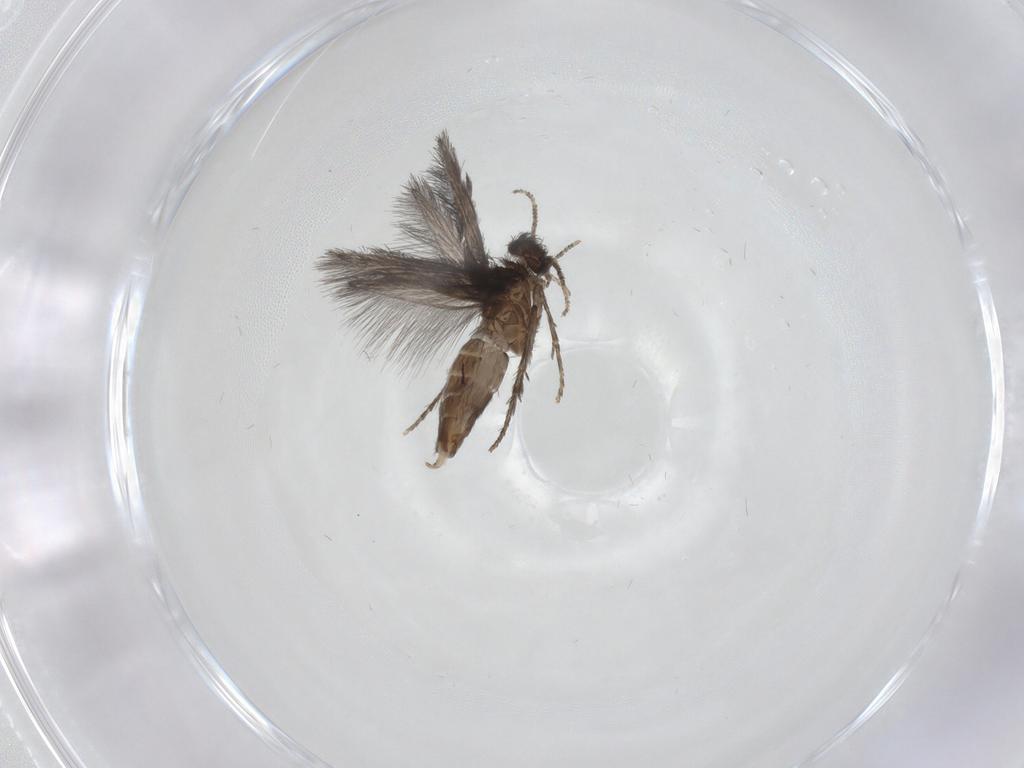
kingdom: Animalia
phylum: Arthropoda
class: Insecta
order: Trichoptera
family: Hydroptilidae
